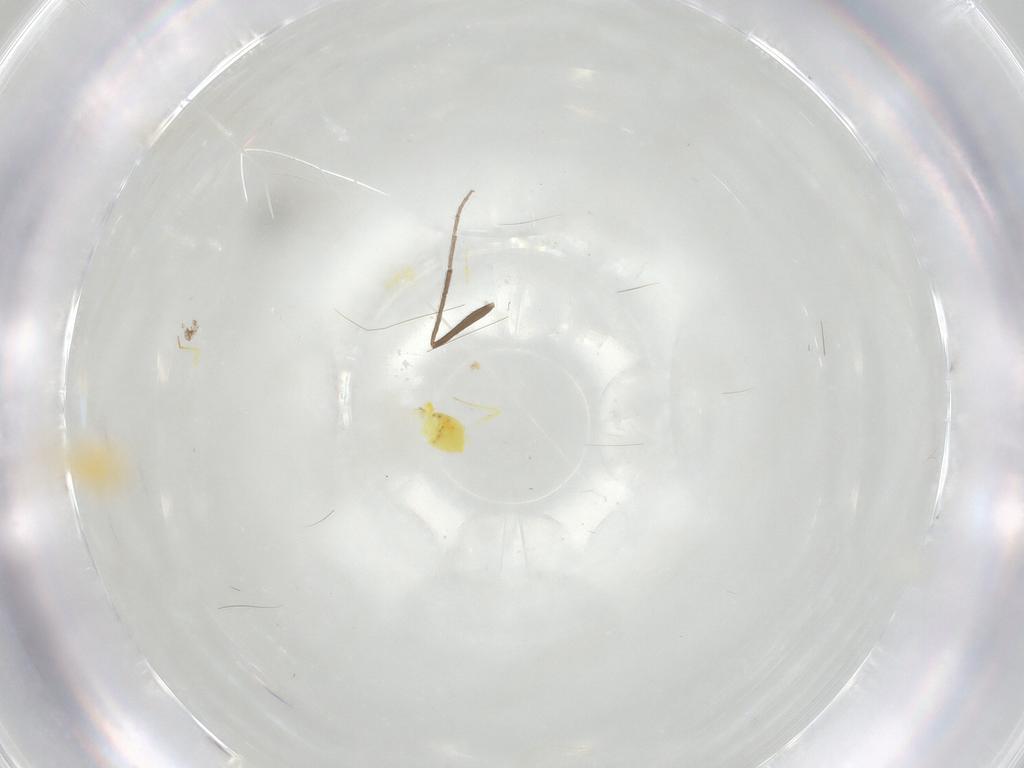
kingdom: Animalia
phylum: Arthropoda
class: Insecta
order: Hemiptera
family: Aleyrodidae
